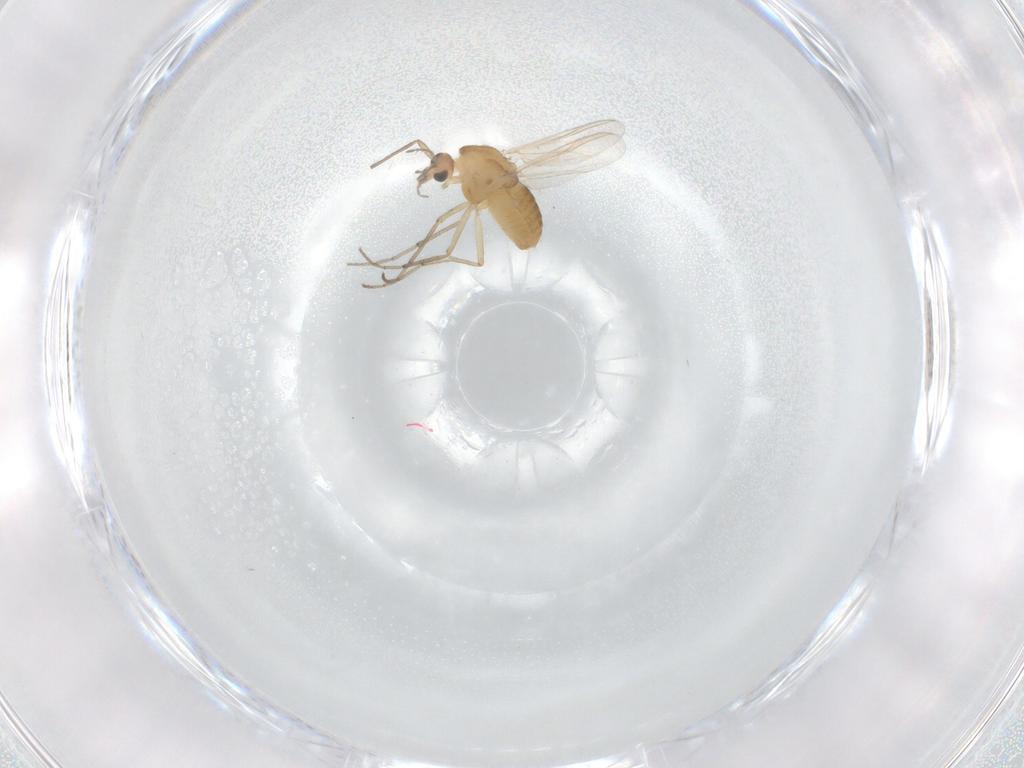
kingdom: Animalia
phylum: Arthropoda
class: Insecta
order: Diptera
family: Chironomidae
